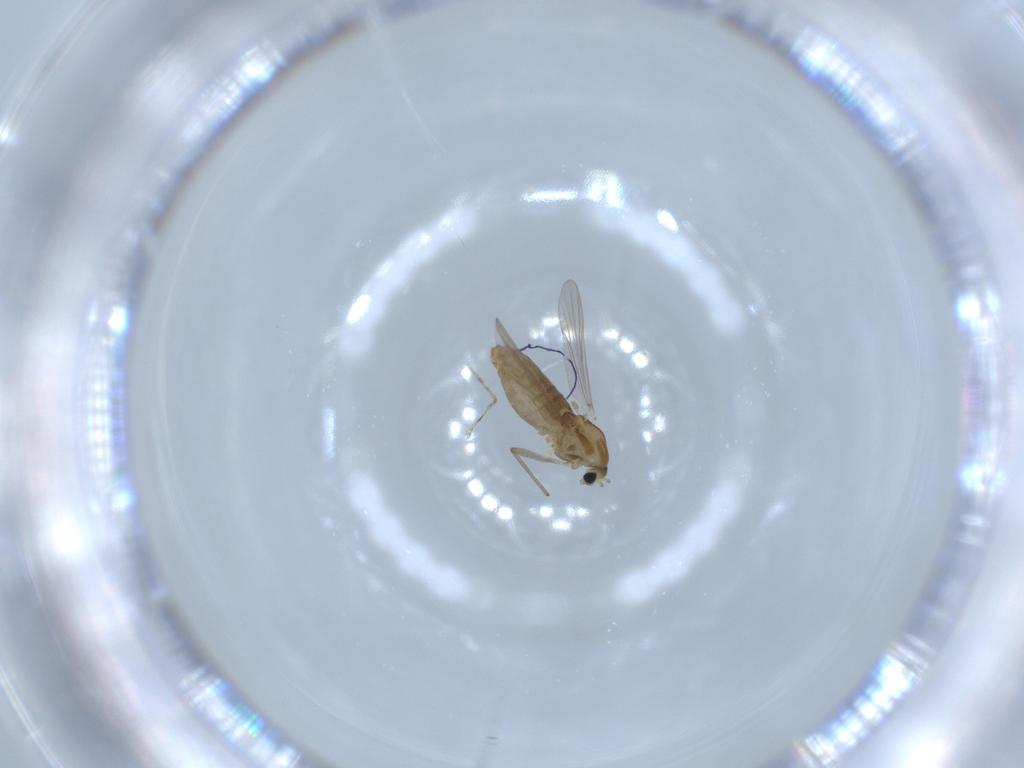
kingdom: Animalia
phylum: Arthropoda
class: Insecta
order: Diptera
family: Chironomidae
